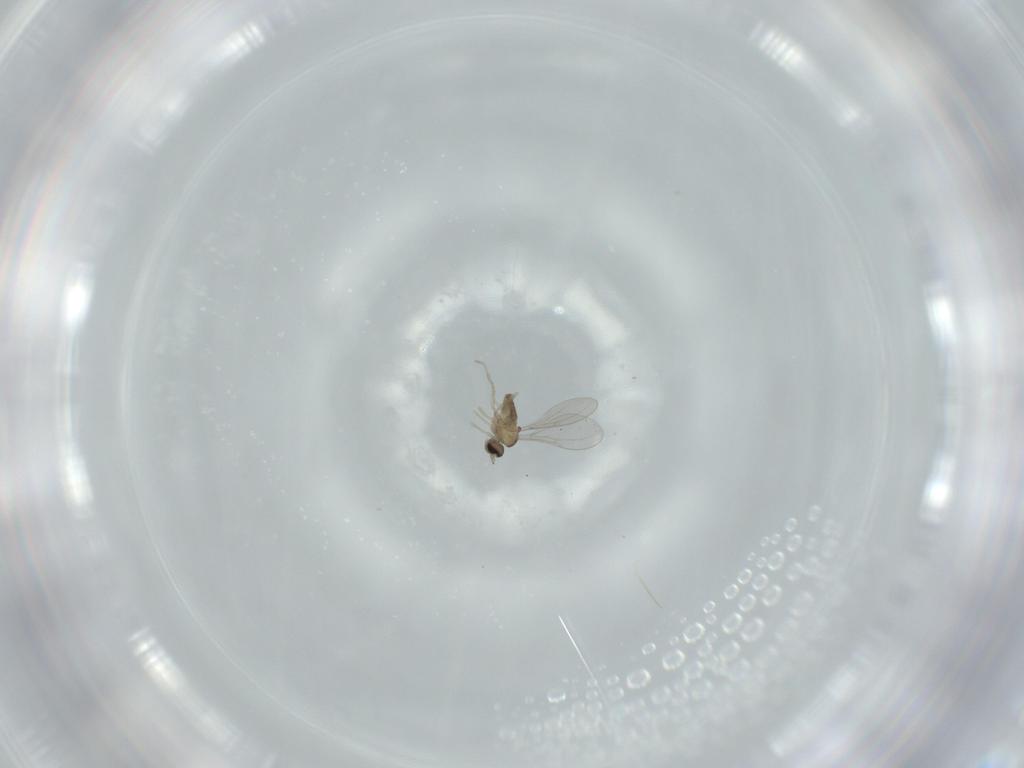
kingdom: Animalia
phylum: Arthropoda
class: Insecta
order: Diptera
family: Cecidomyiidae
